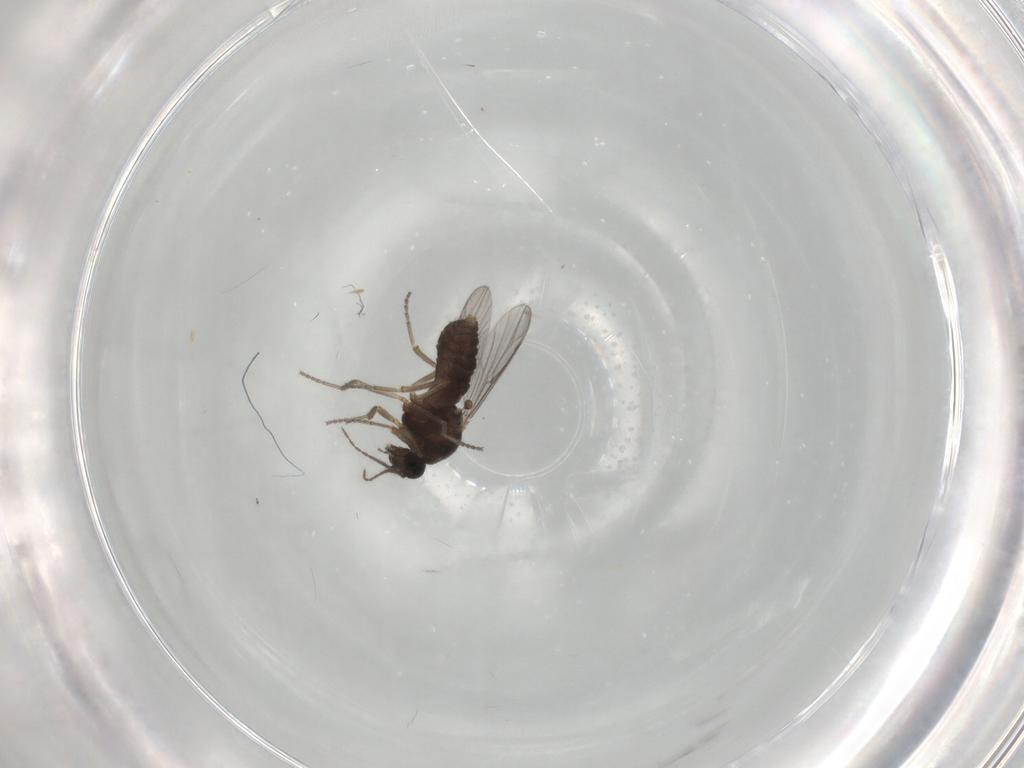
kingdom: Animalia
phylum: Arthropoda
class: Insecta
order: Diptera
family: Ceratopogonidae
